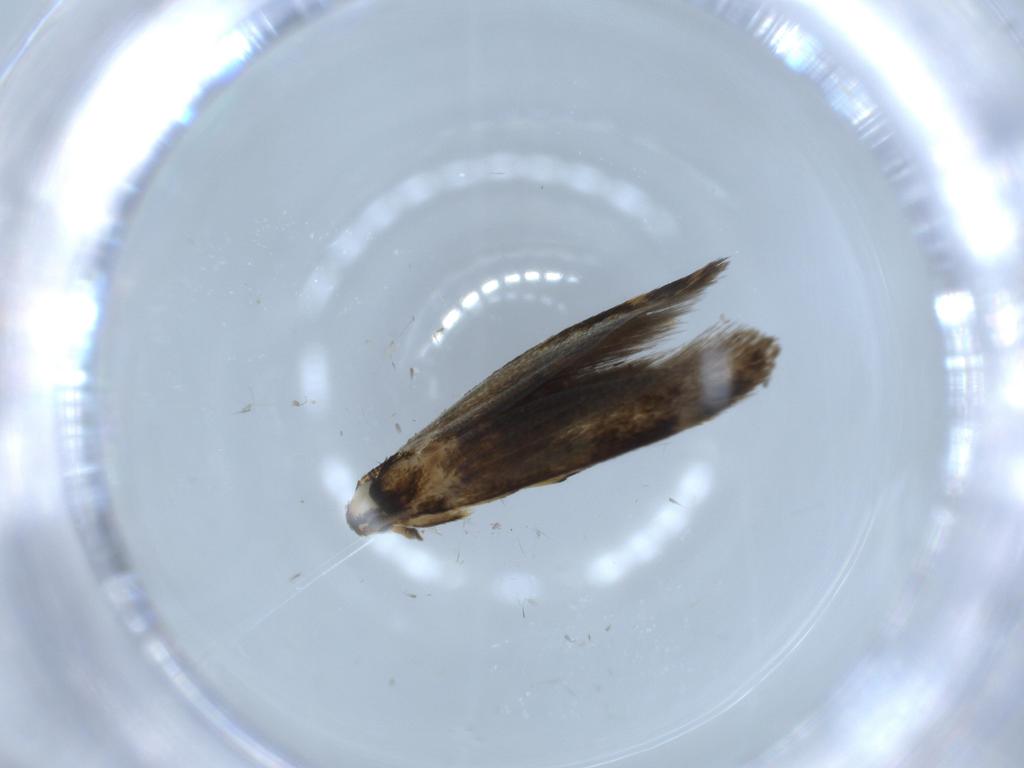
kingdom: Animalia
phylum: Arthropoda
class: Insecta
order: Lepidoptera
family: Tineidae
